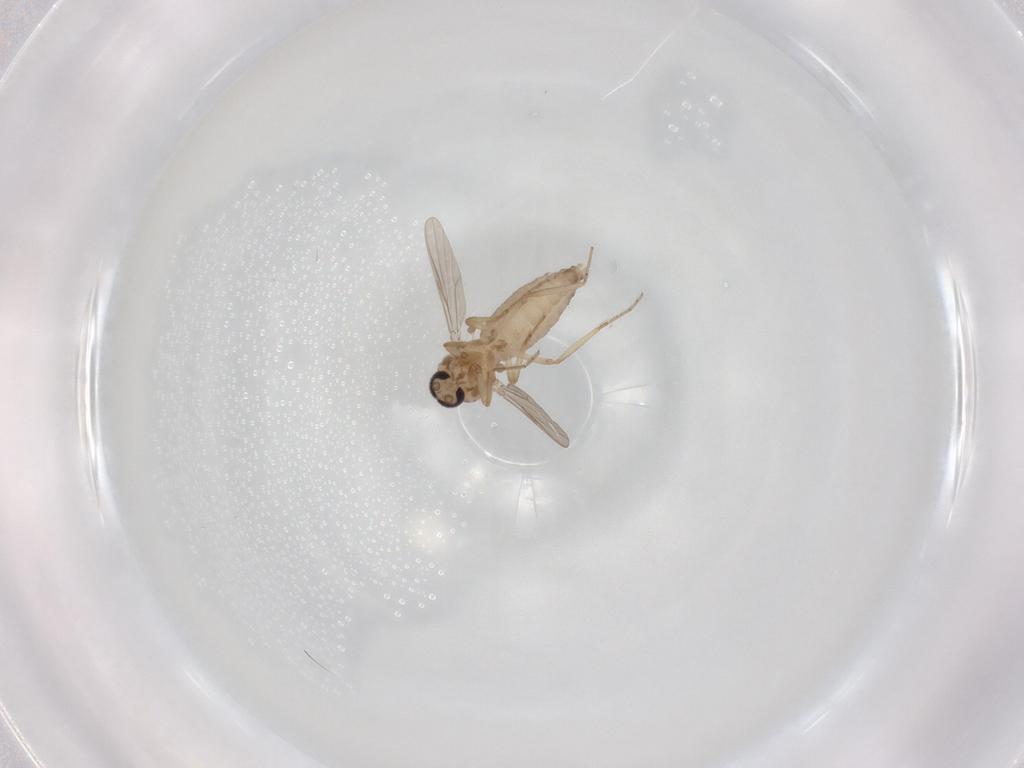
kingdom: Animalia
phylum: Arthropoda
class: Insecta
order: Diptera
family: Ceratopogonidae
